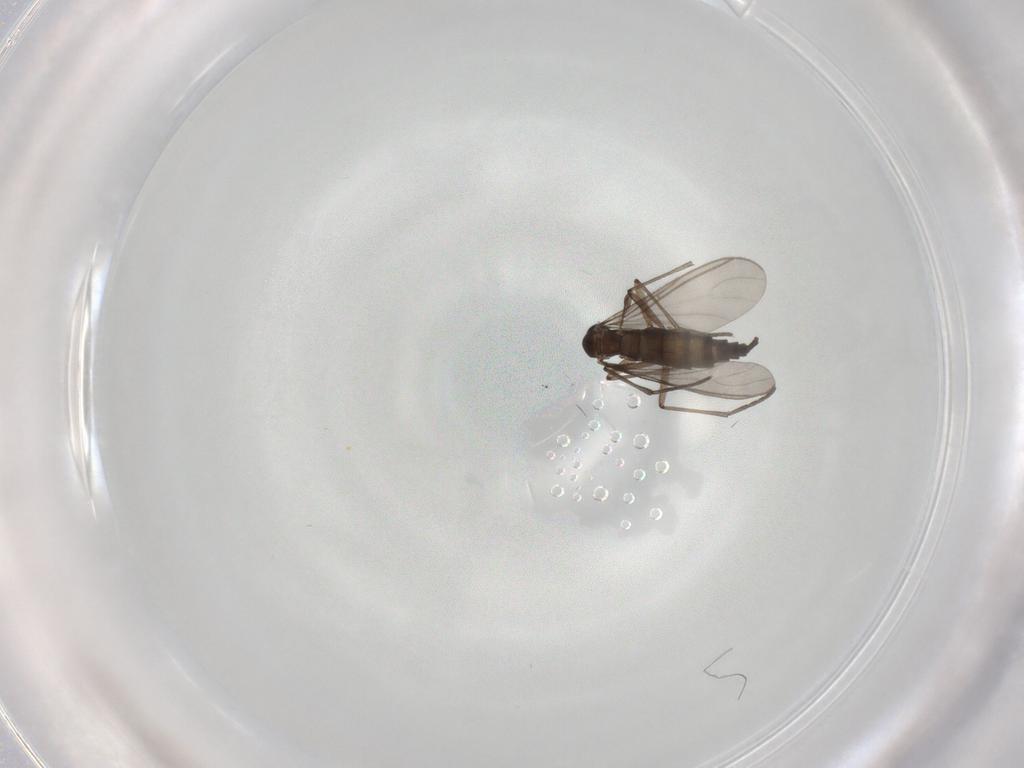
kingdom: Animalia
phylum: Arthropoda
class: Insecta
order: Diptera
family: Sciaridae
